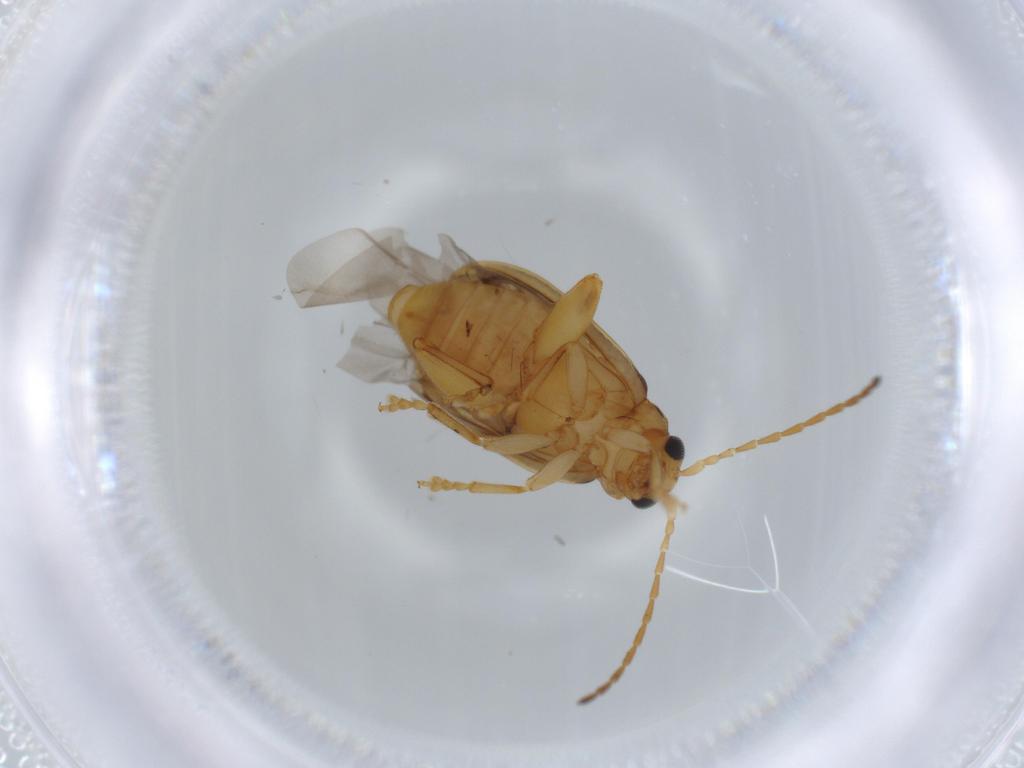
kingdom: Animalia
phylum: Arthropoda
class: Insecta
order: Coleoptera
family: Chrysomelidae
